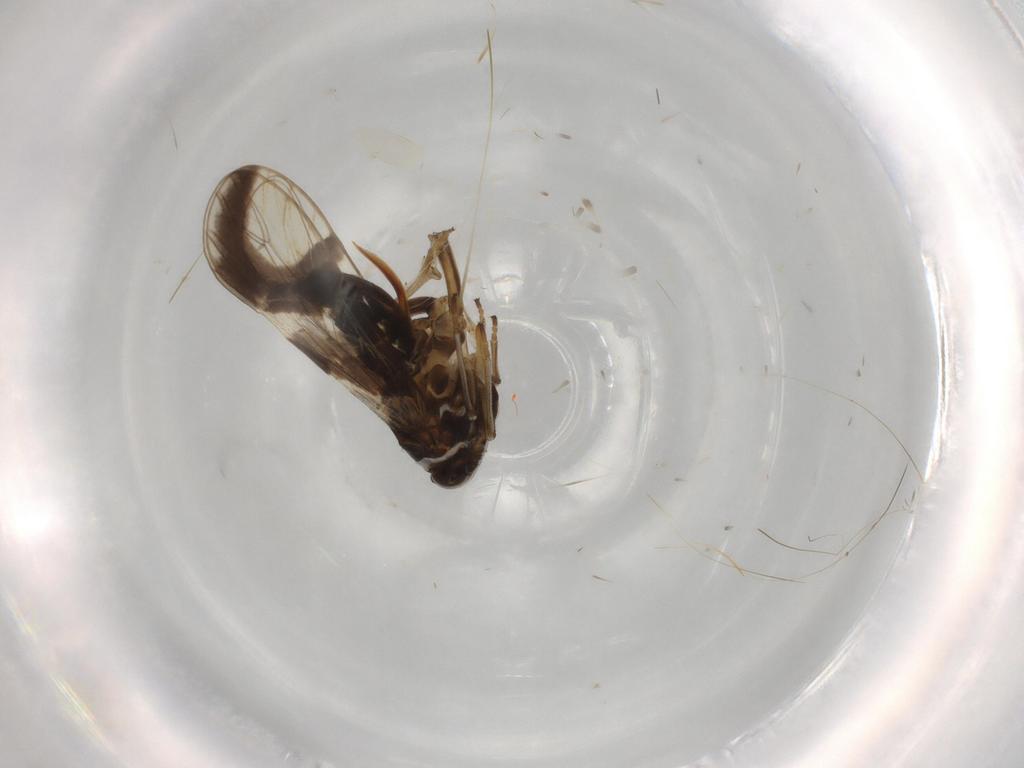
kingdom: Animalia
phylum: Arthropoda
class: Insecta
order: Hemiptera
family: Delphacidae
